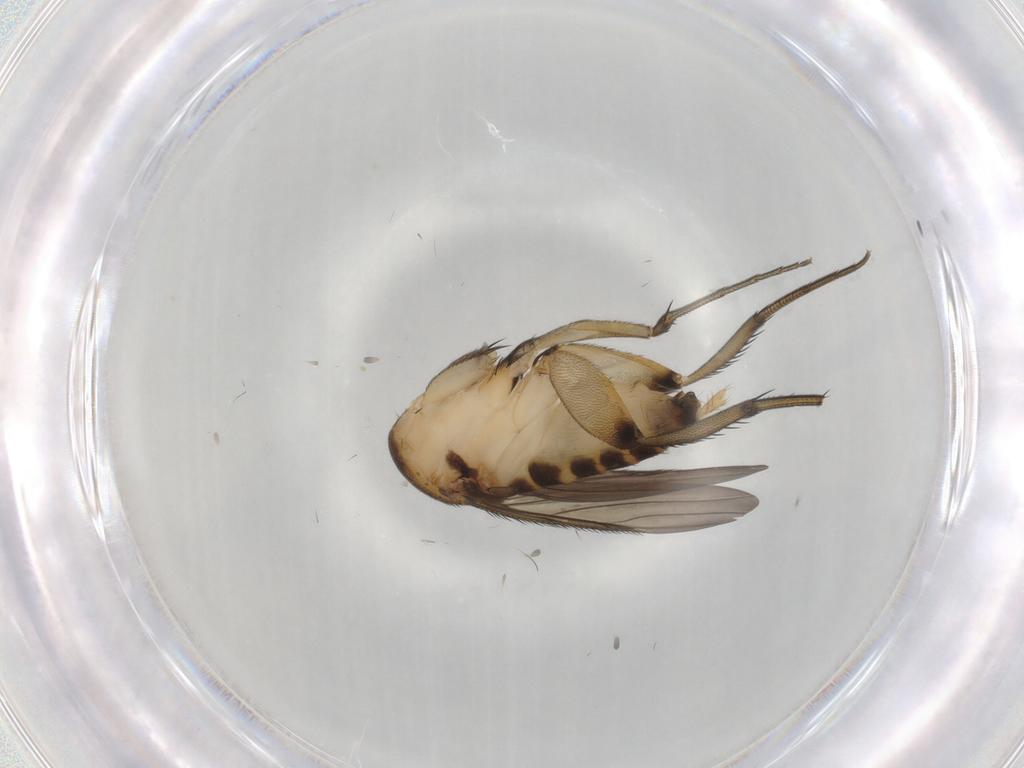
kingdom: Animalia
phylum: Arthropoda
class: Insecta
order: Diptera
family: Phoridae
